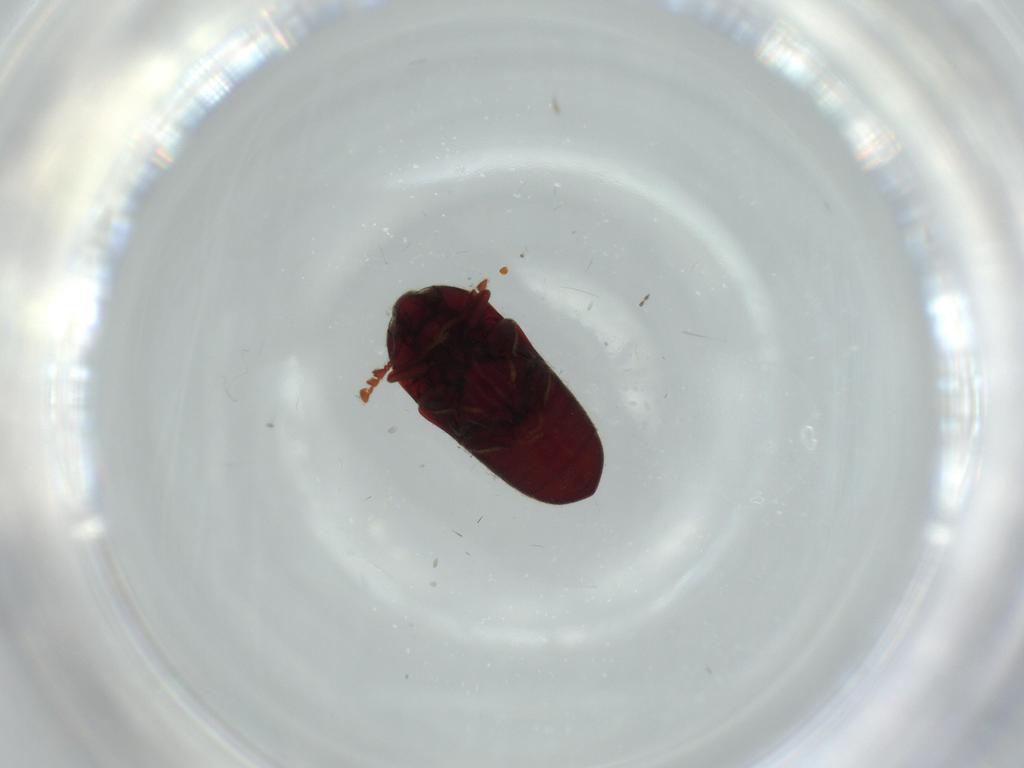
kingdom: Animalia
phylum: Arthropoda
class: Insecta
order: Coleoptera
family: Throscidae
